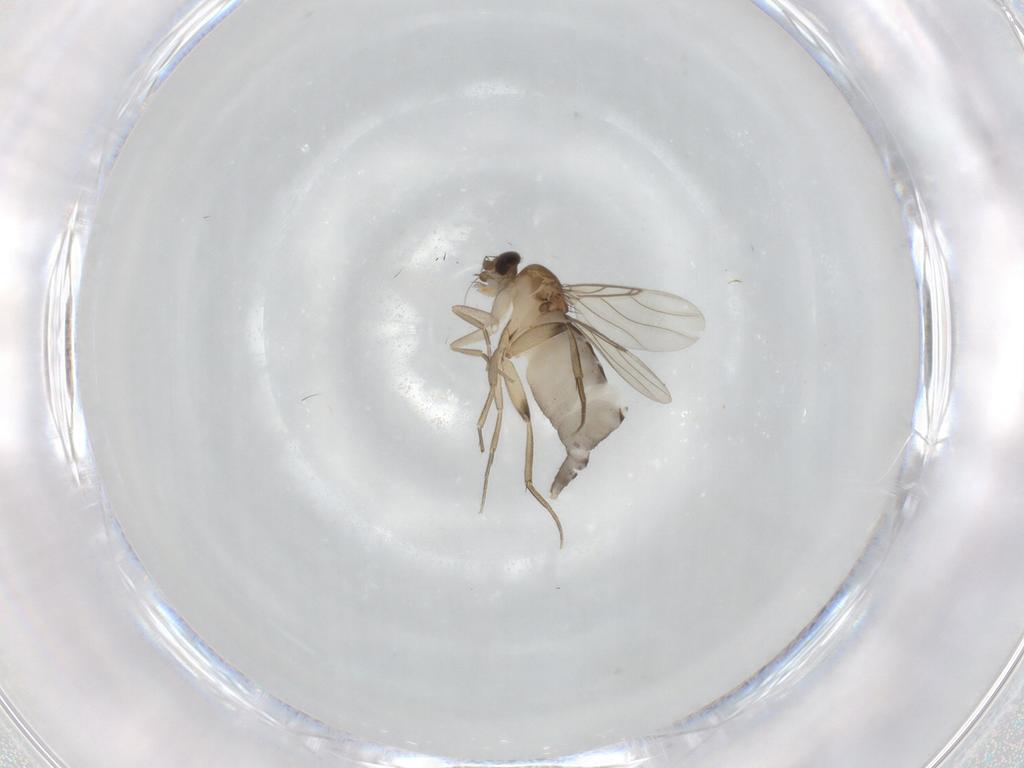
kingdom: Animalia
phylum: Arthropoda
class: Insecta
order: Diptera
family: Phoridae
